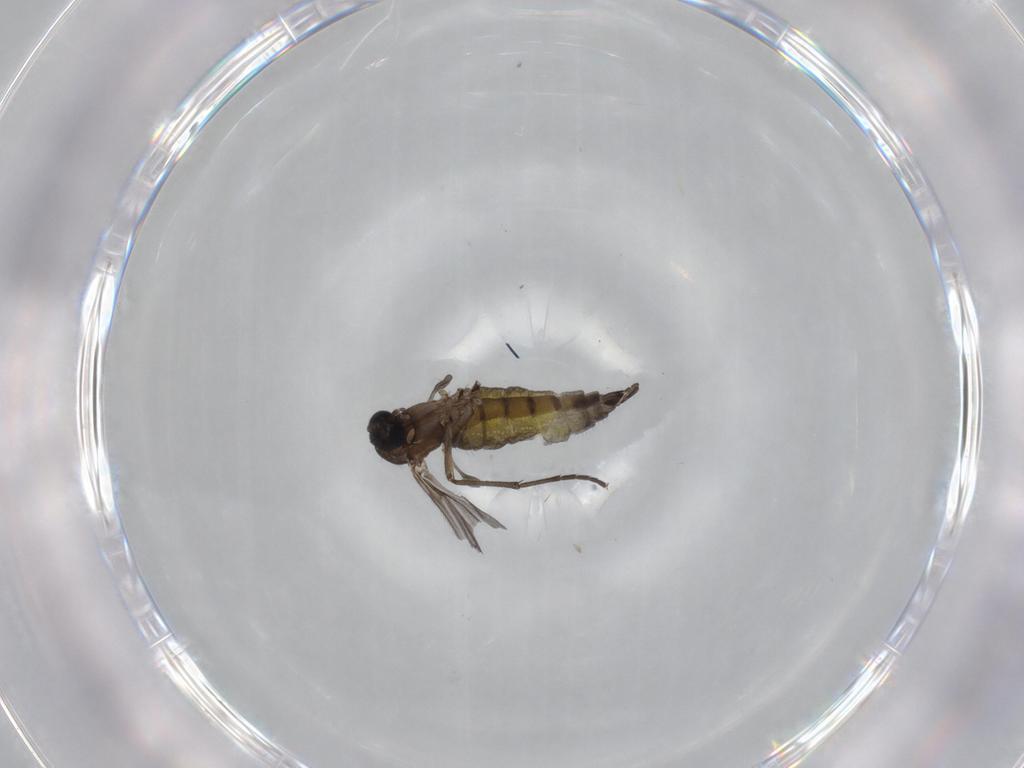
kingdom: Animalia
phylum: Arthropoda
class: Insecta
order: Diptera
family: Sciaridae
